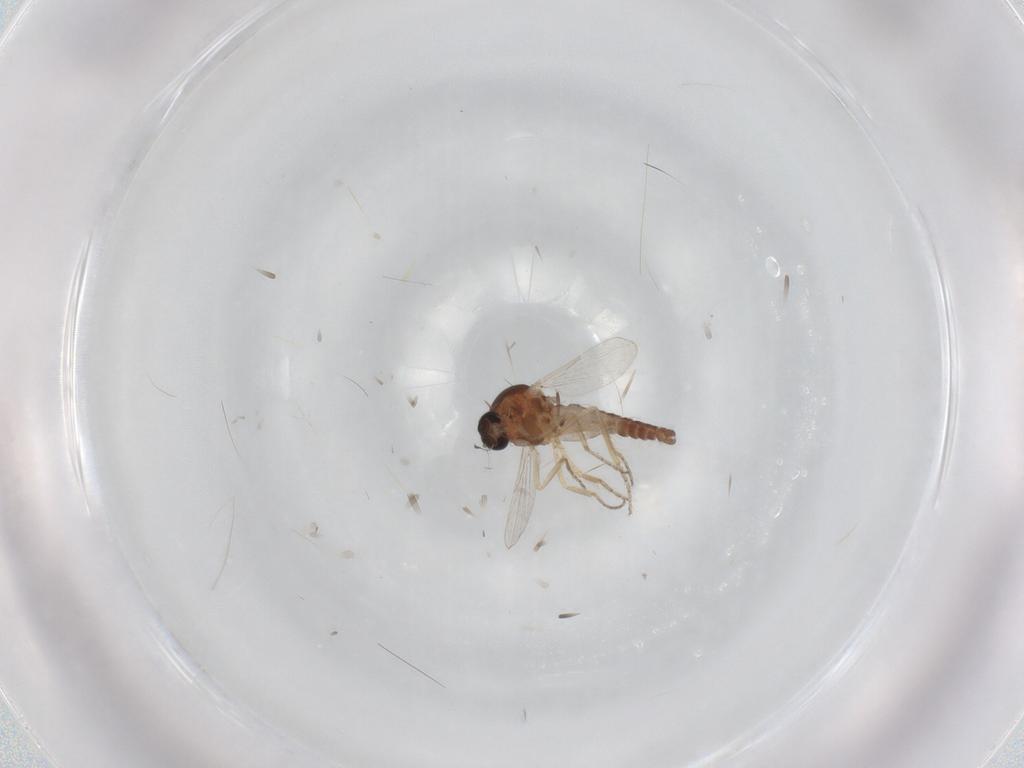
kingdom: Animalia
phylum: Arthropoda
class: Insecta
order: Diptera
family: Ceratopogonidae
